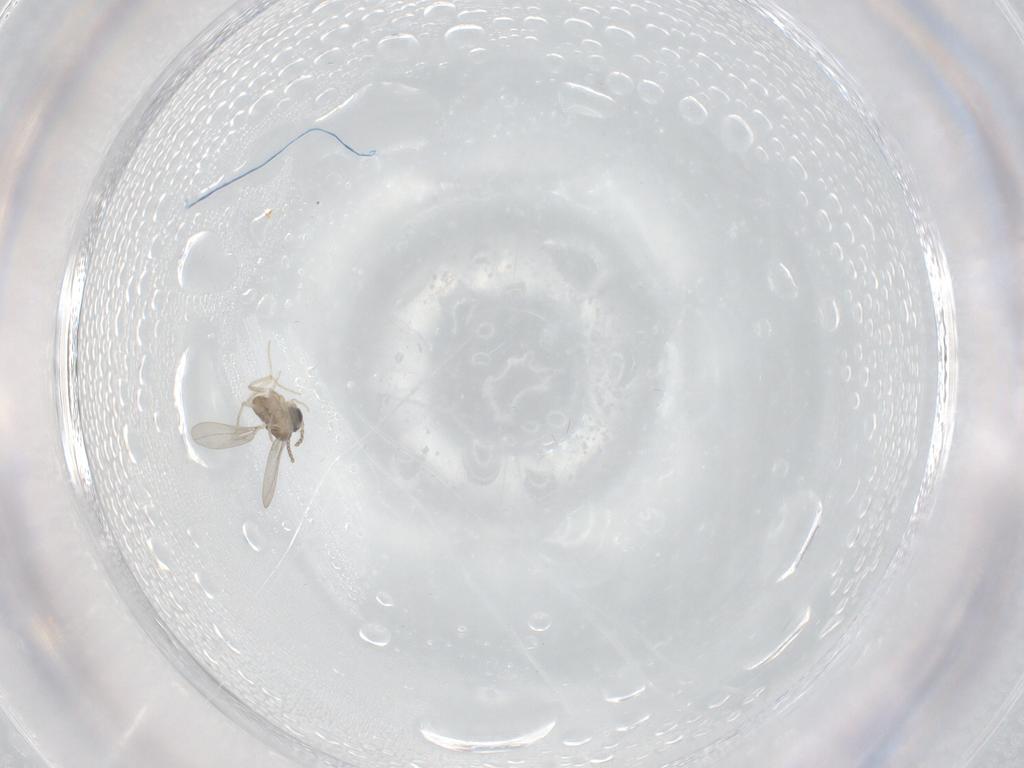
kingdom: Animalia
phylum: Arthropoda
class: Insecta
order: Diptera
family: Cecidomyiidae
